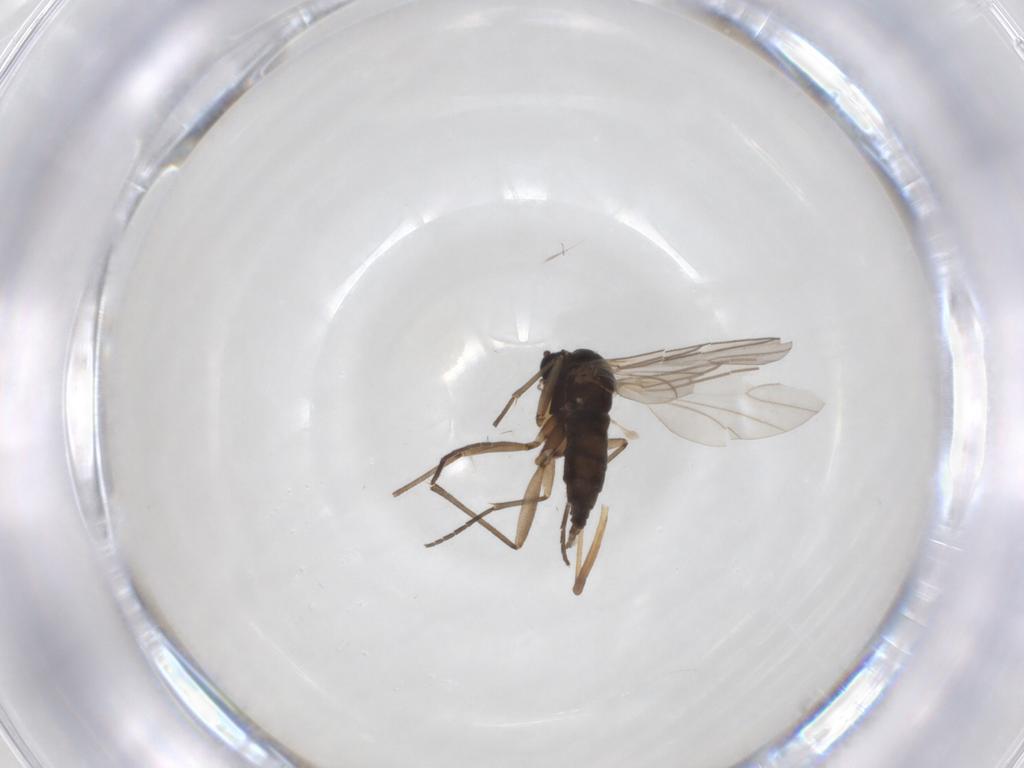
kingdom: Animalia
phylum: Arthropoda
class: Insecta
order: Diptera
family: Sciaridae
